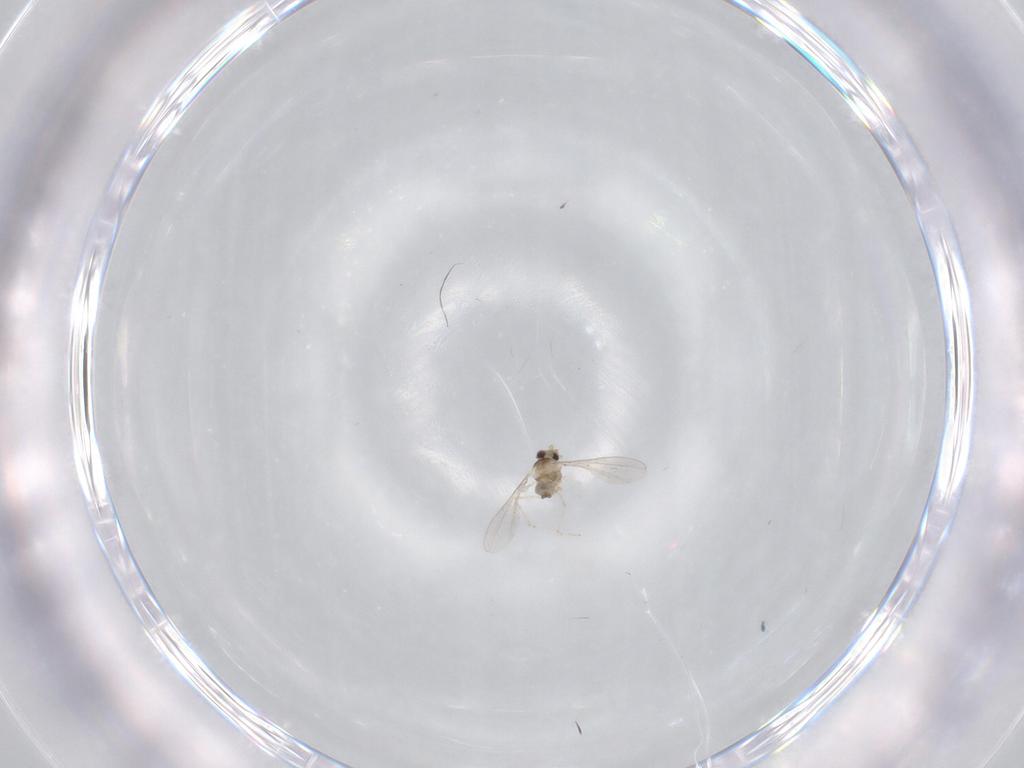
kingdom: Animalia
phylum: Arthropoda
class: Insecta
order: Diptera
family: Cecidomyiidae
